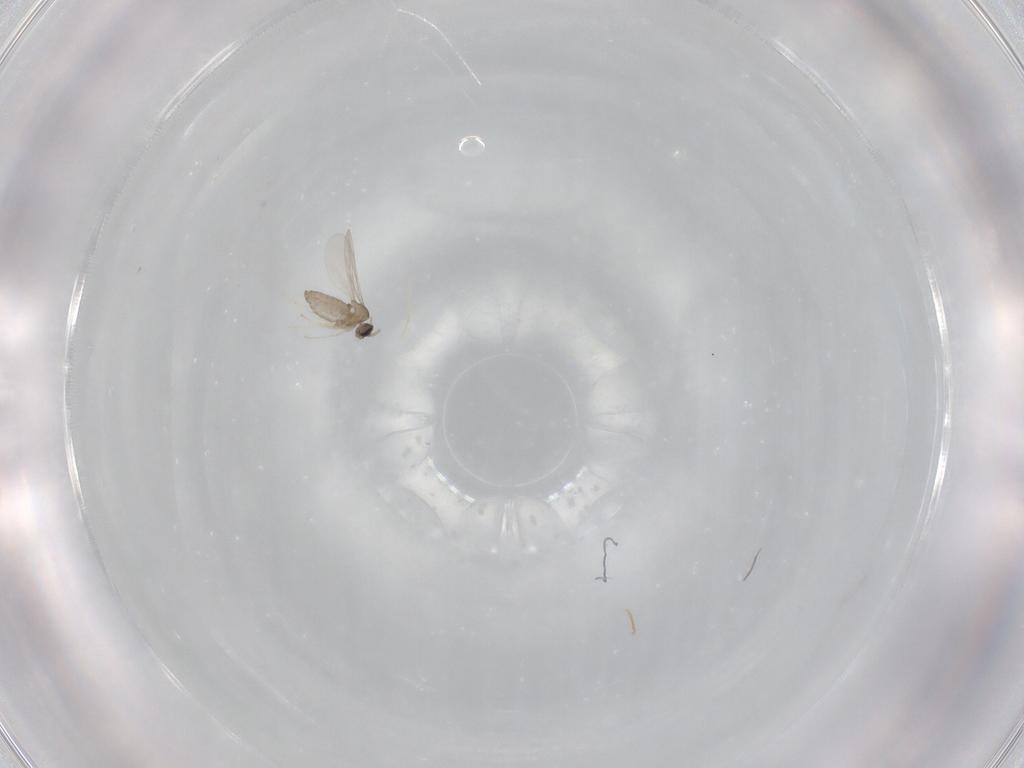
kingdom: Animalia
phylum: Arthropoda
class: Insecta
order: Diptera
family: Cecidomyiidae
